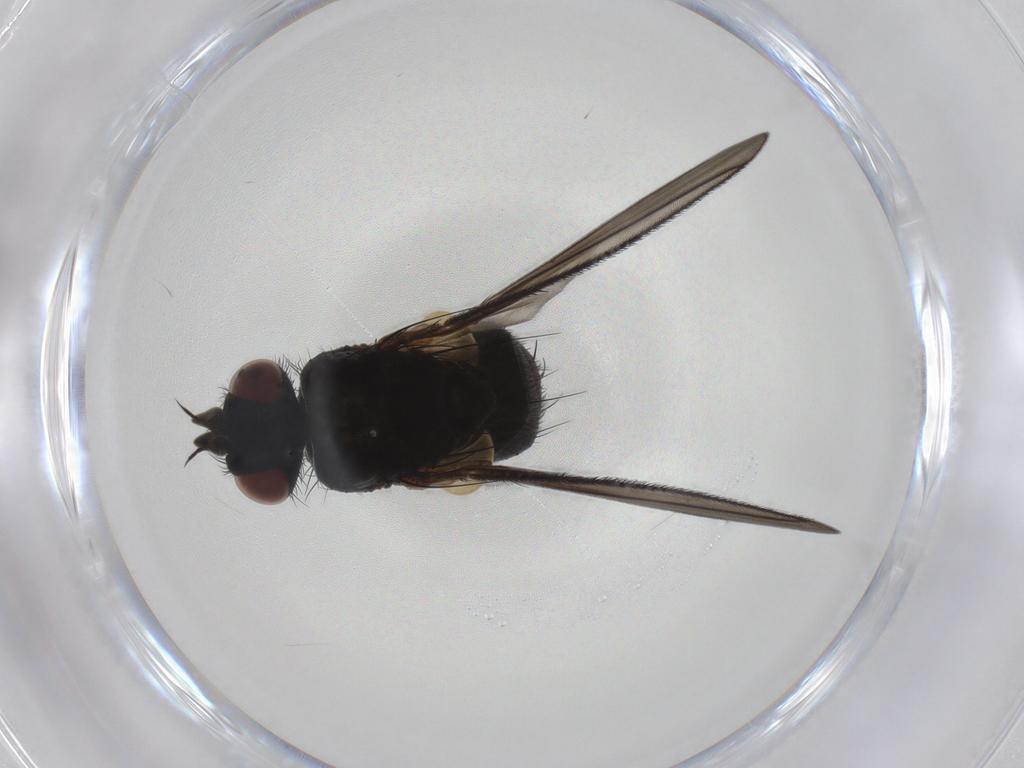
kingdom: Animalia
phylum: Arthropoda
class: Insecta
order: Diptera
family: Tachinidae
